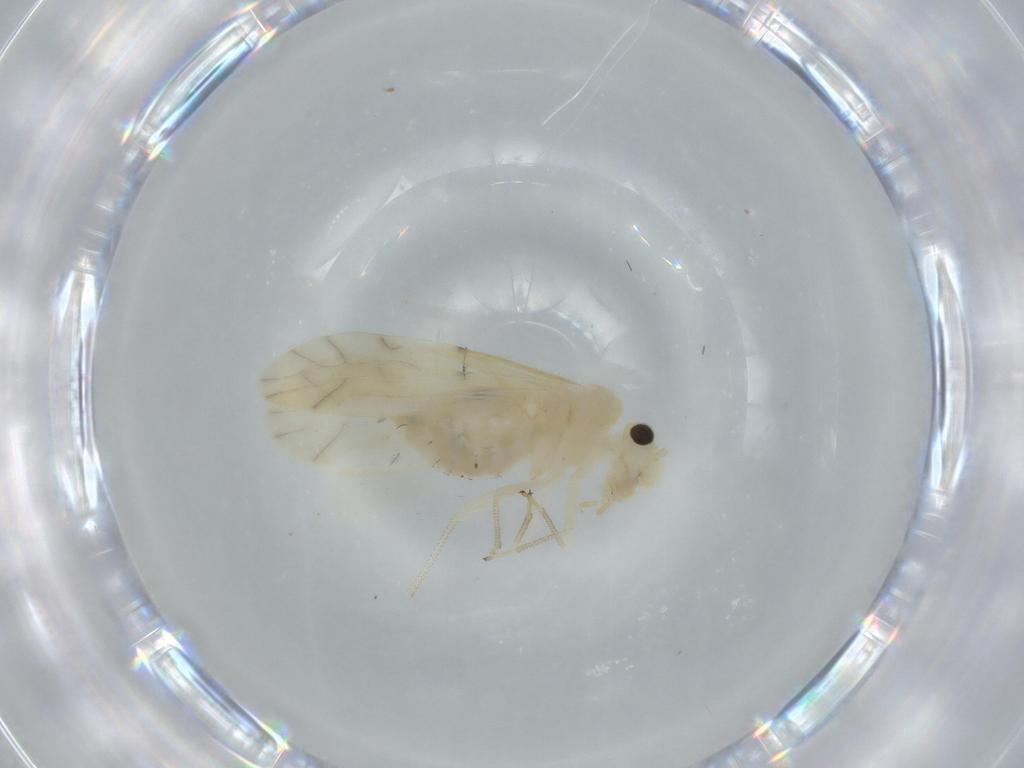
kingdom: Animalia
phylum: Arthropoda
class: Insecta
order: Psocodea
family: Caeciliusidae
